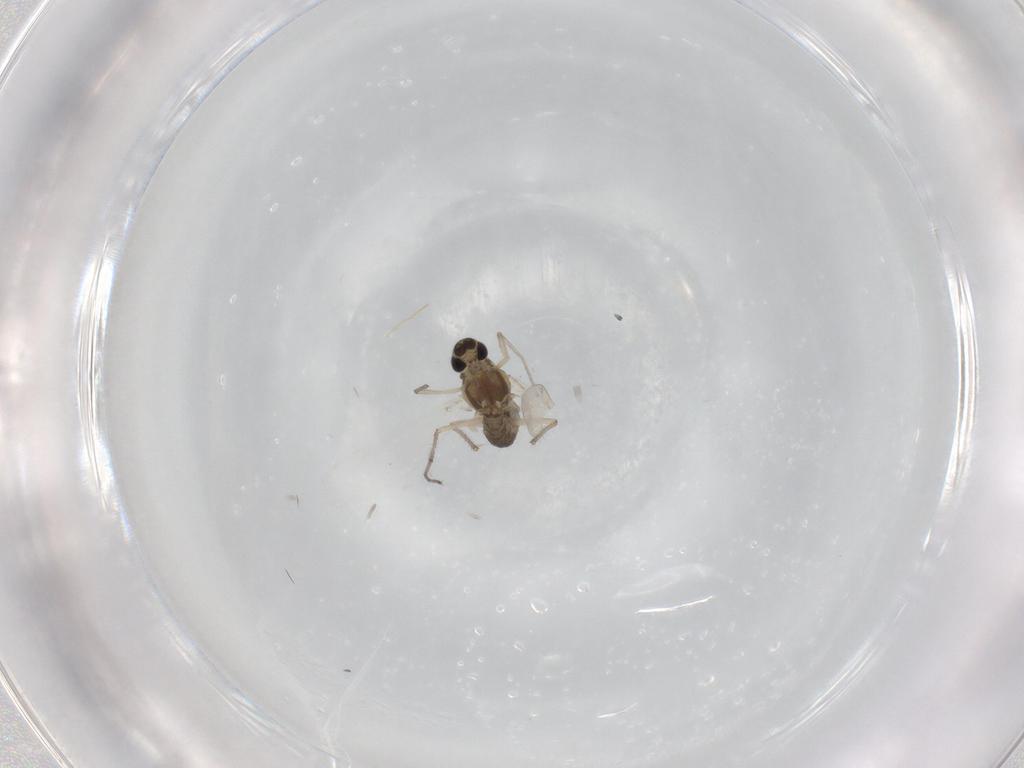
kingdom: Animalia
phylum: Arthropoda
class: Insecta
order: Diptera
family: Chironomidae
